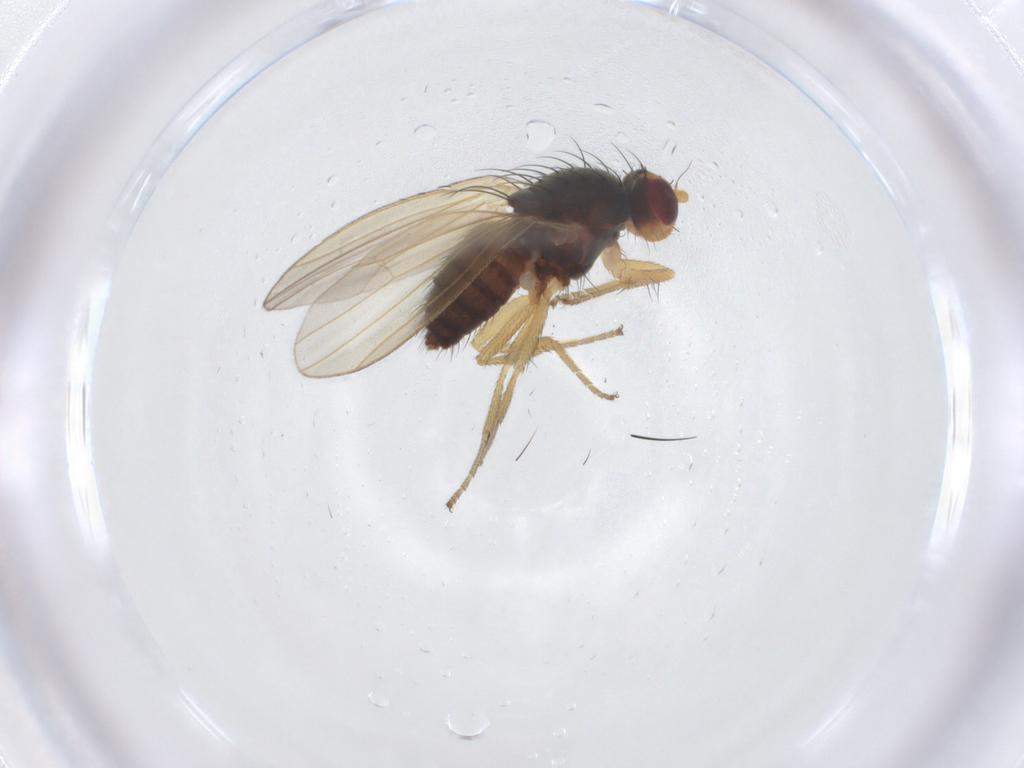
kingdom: Animalia
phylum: Arthropoda
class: Insecta
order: Diptera
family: Heleomyzidae
